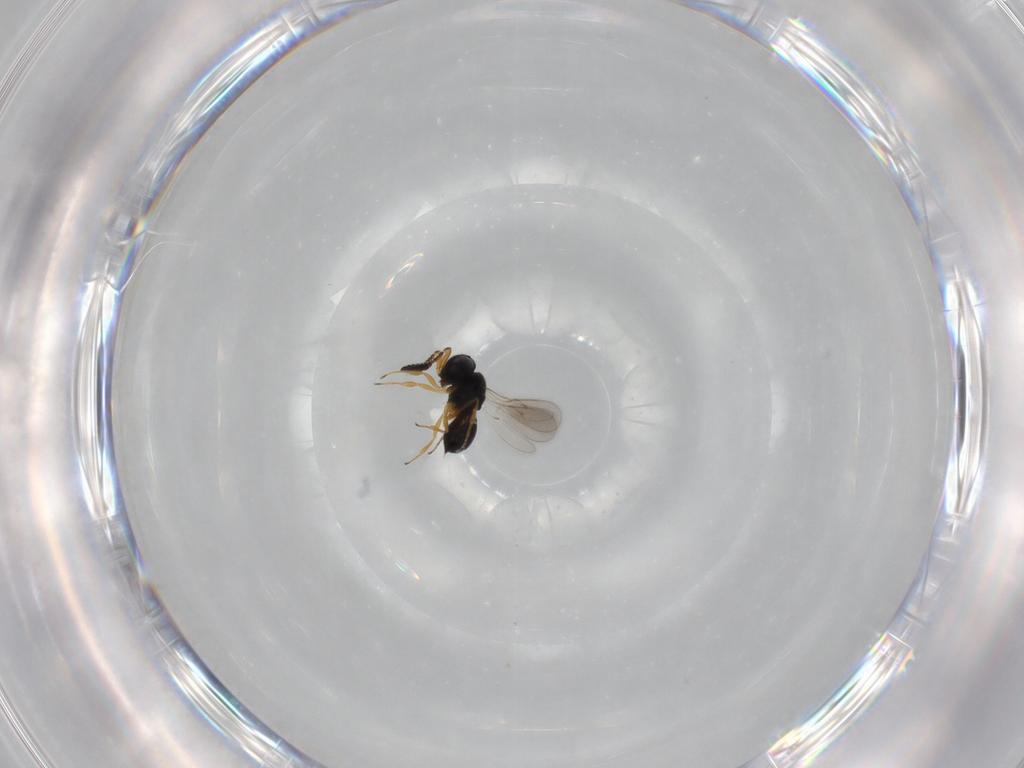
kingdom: Animalia
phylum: Arthropoda
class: Insecta
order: Hymenoptera
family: Scelionidae
